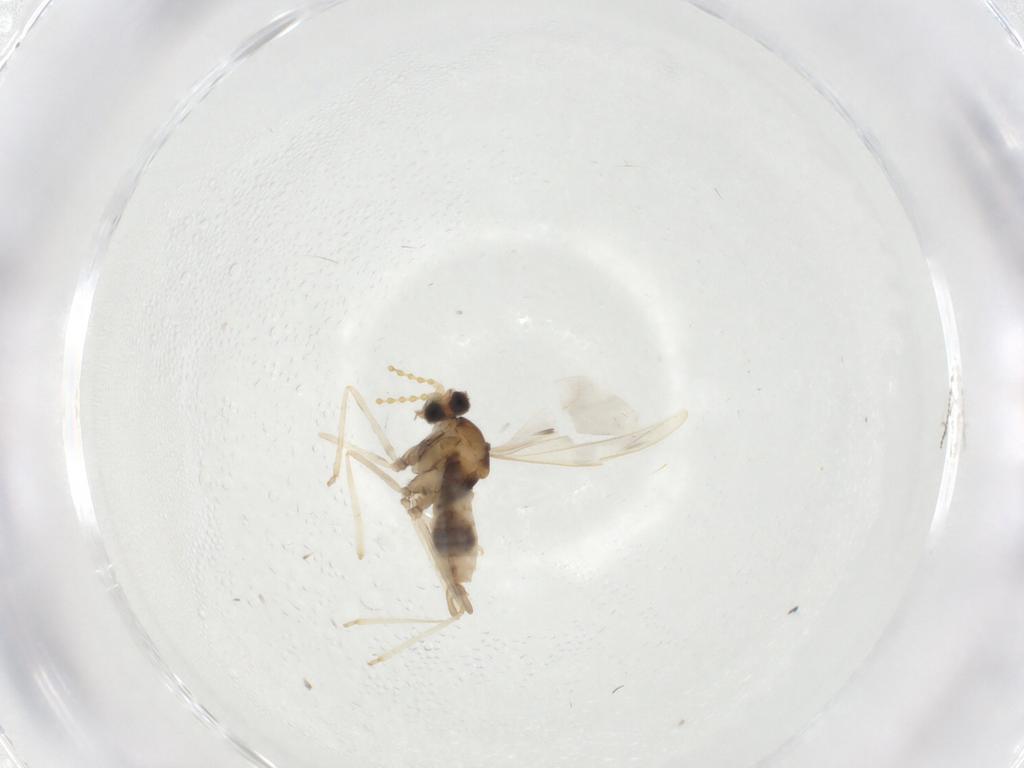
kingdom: Animalia
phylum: Arthropoda
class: Insecta
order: Diptera
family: Cecidomyiidae
